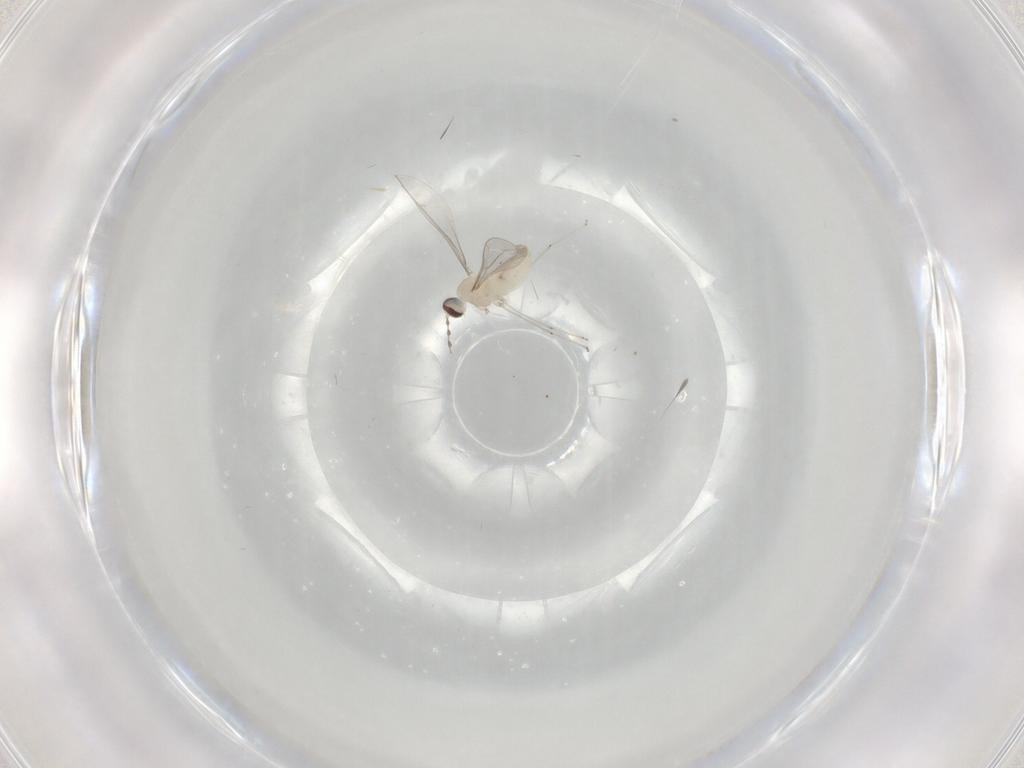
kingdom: Animalia
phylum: Arthropoda
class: Insecta
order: Diptera
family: Cecidomyiidae
